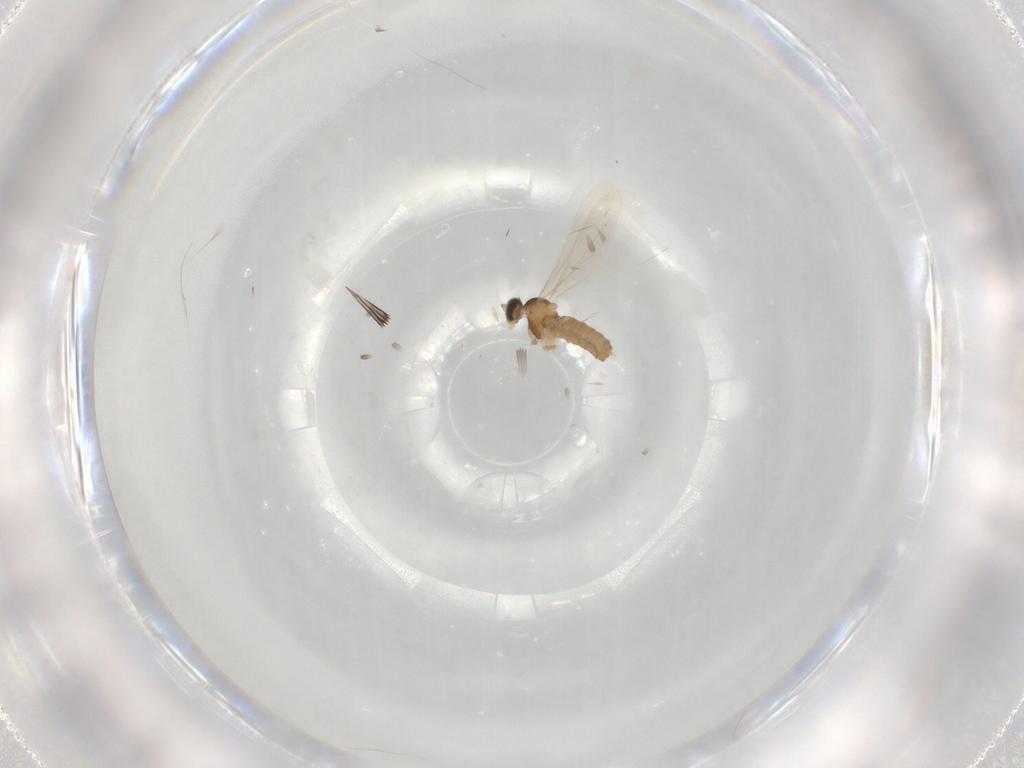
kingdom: Animalia
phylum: Arthropoda
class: Insecta
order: Diptera
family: Cecidomyiidae
